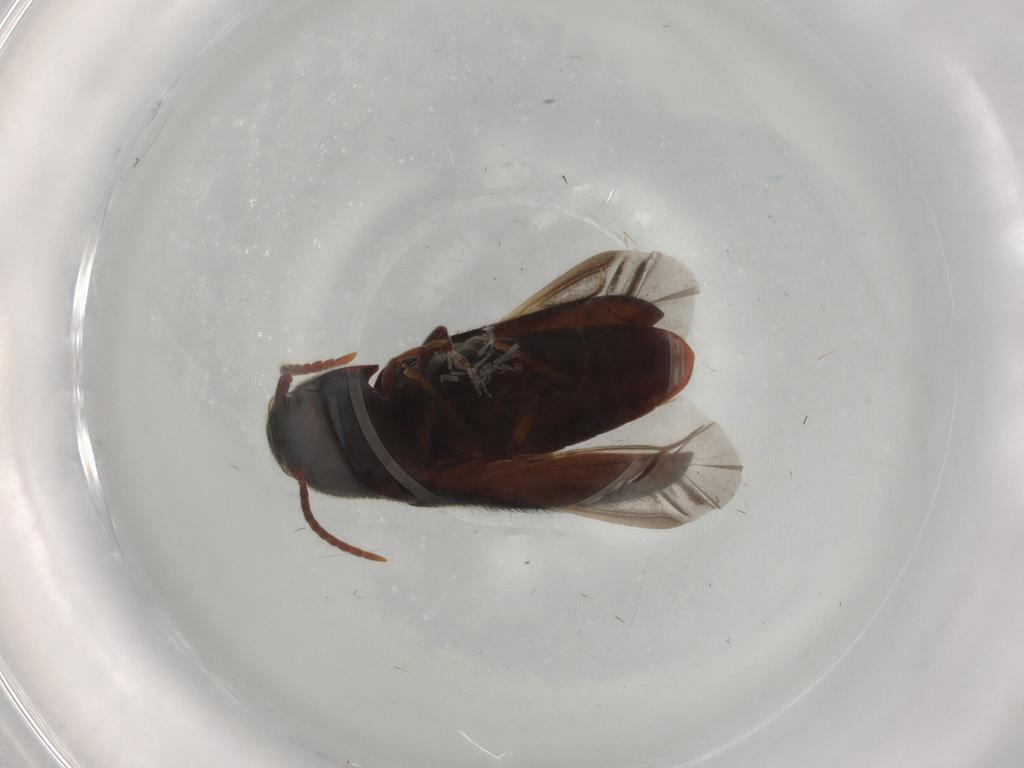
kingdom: Animalia
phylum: Arthropoda
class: Insecta
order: Coleoptera
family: Eucnemidae
